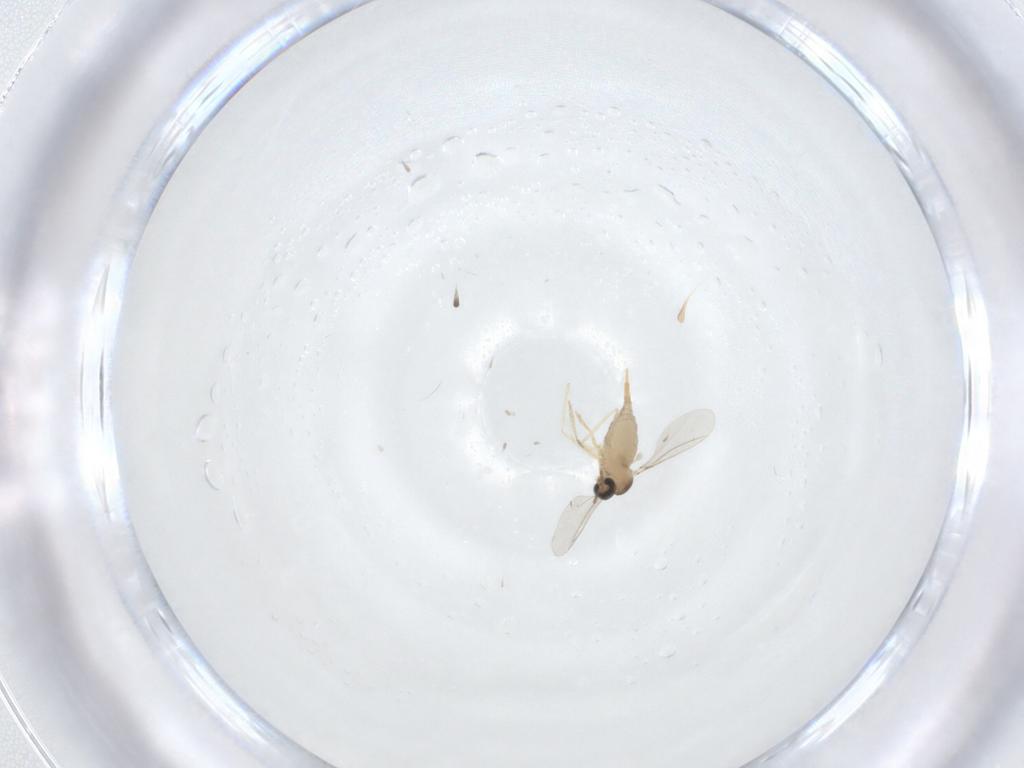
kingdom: Animalia
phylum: Arthropoda
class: Insecta
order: Diptera
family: Cecidomyiidae
